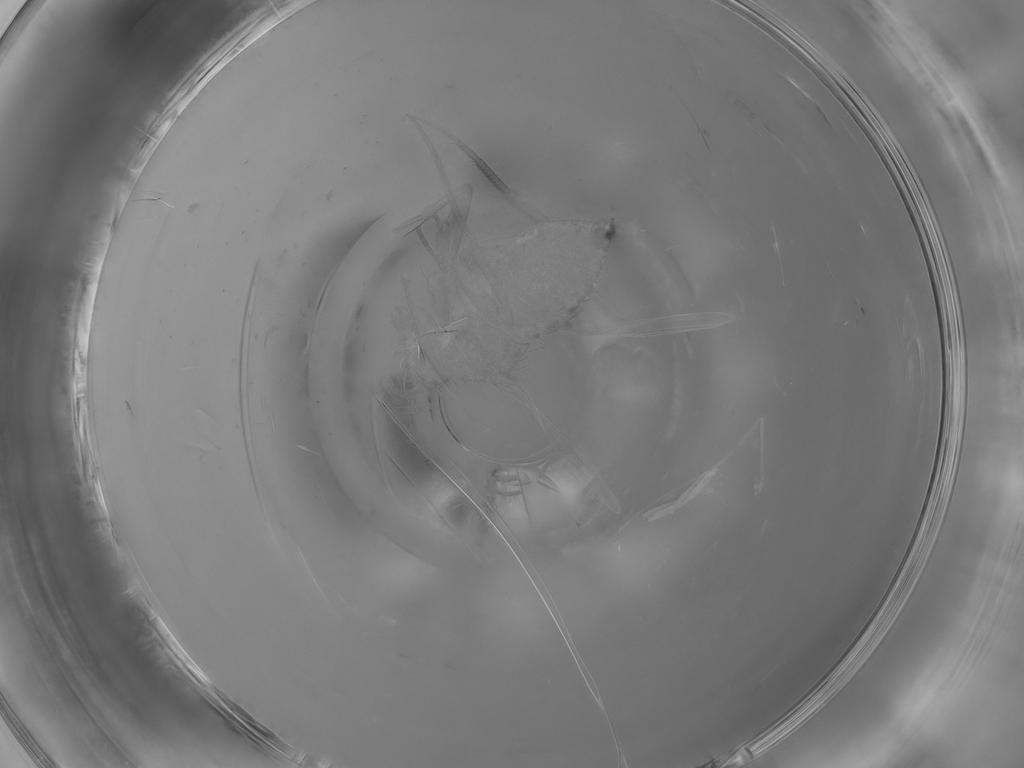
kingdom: Animalia
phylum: Arthropoda
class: Insecta
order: Diptera
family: Phoridae
